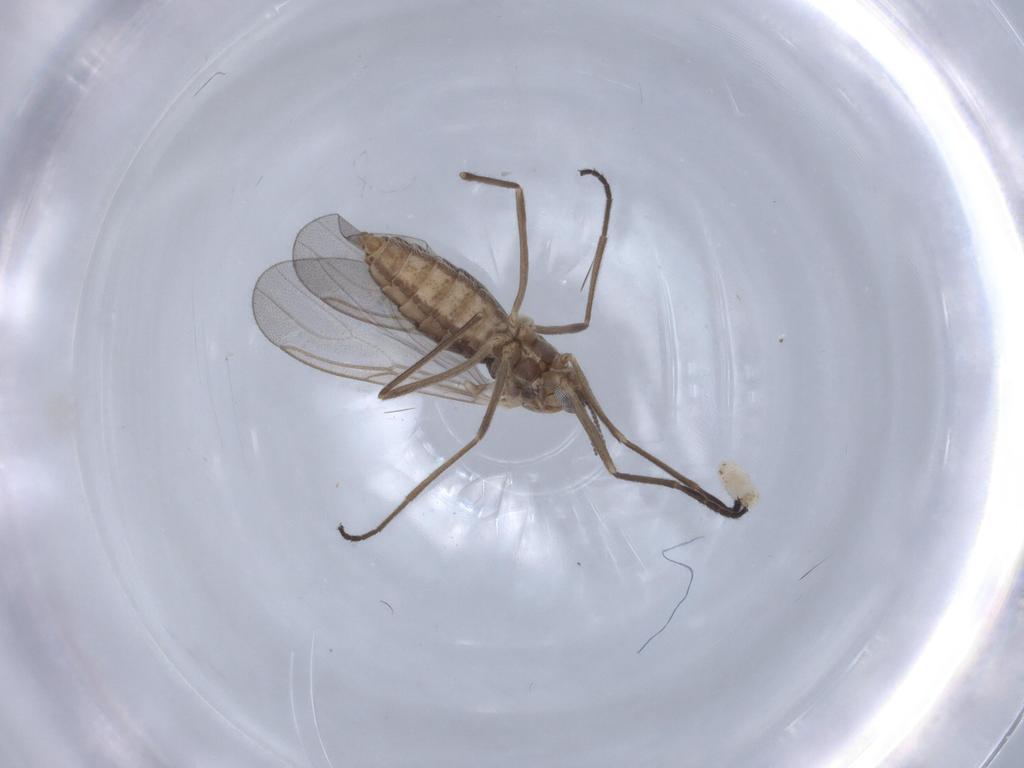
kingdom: Animalia
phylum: Arthropoda
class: Insecta
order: Diptera
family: Cecidomyiidae
